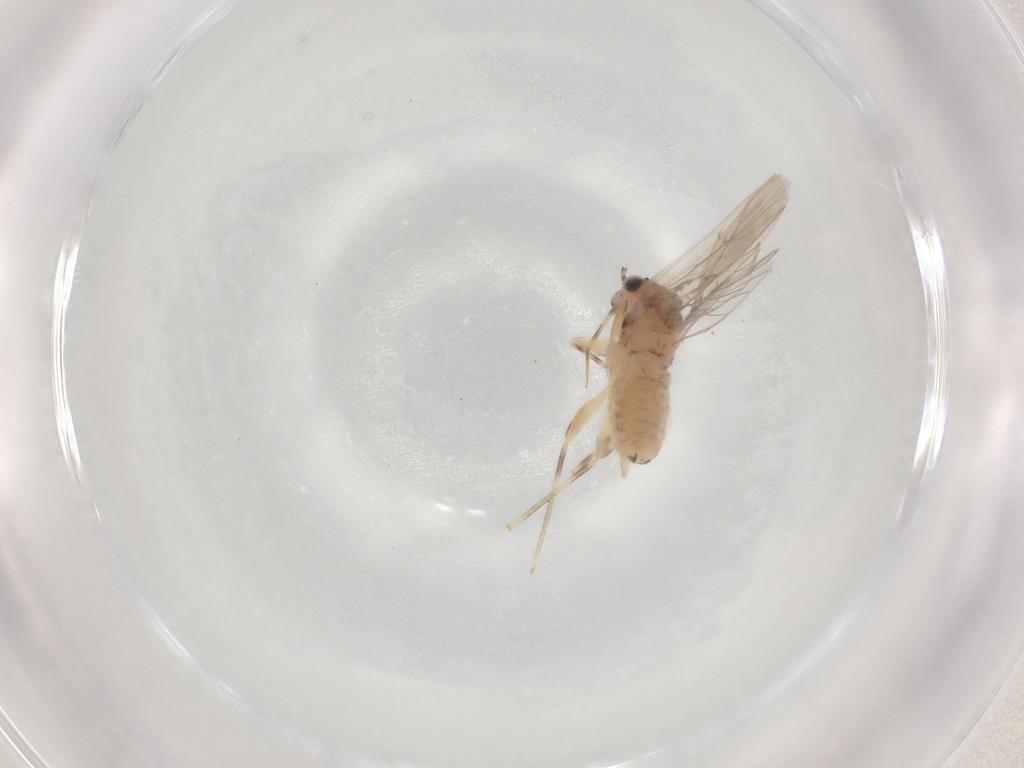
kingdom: Animalia
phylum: Arthropoda
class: Insecta
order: Psocodea
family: Lepidopsocidae
